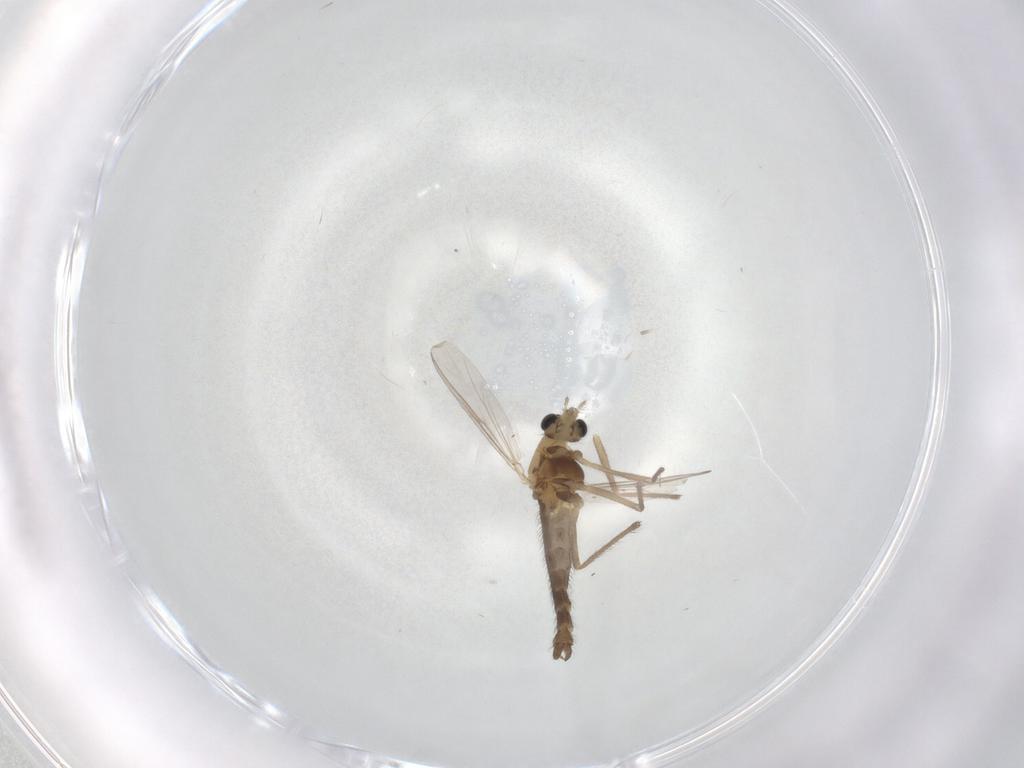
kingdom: Animalia
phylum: Arthropoda
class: Insecta
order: Diptera
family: Chironomidae
